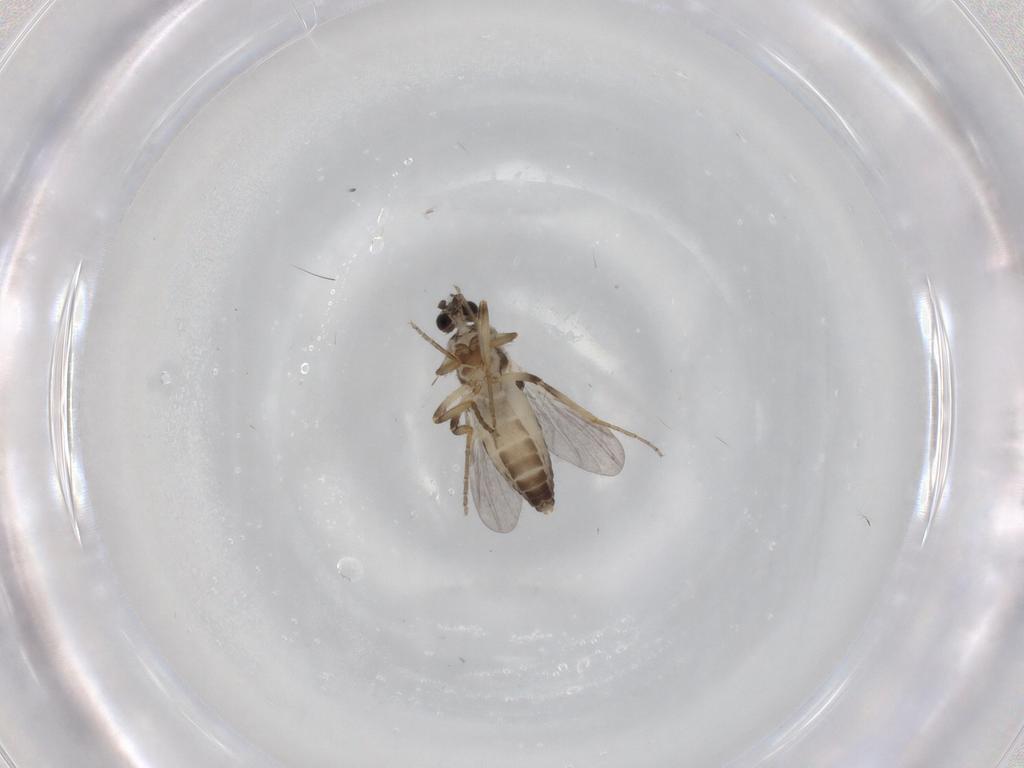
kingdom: Animalia
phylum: Arthropoda
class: Insecta
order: Diptera
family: Ceratopogonidae
